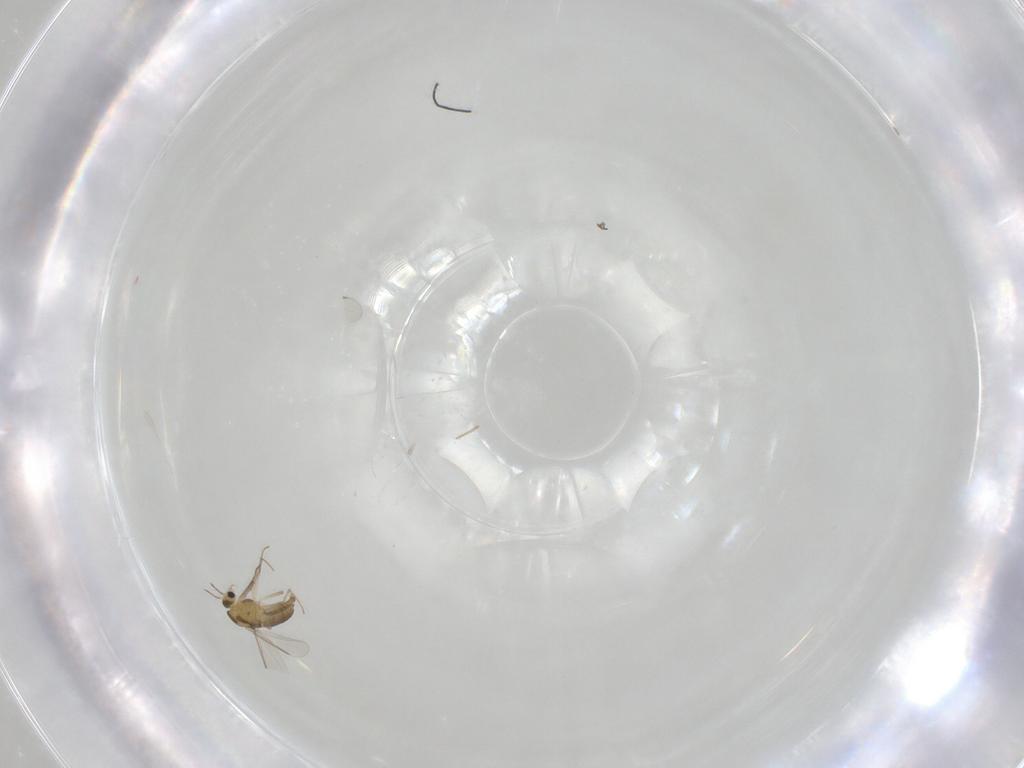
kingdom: Animalia
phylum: Arthropoda
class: Insecta
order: Diptera
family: Chironomidae
